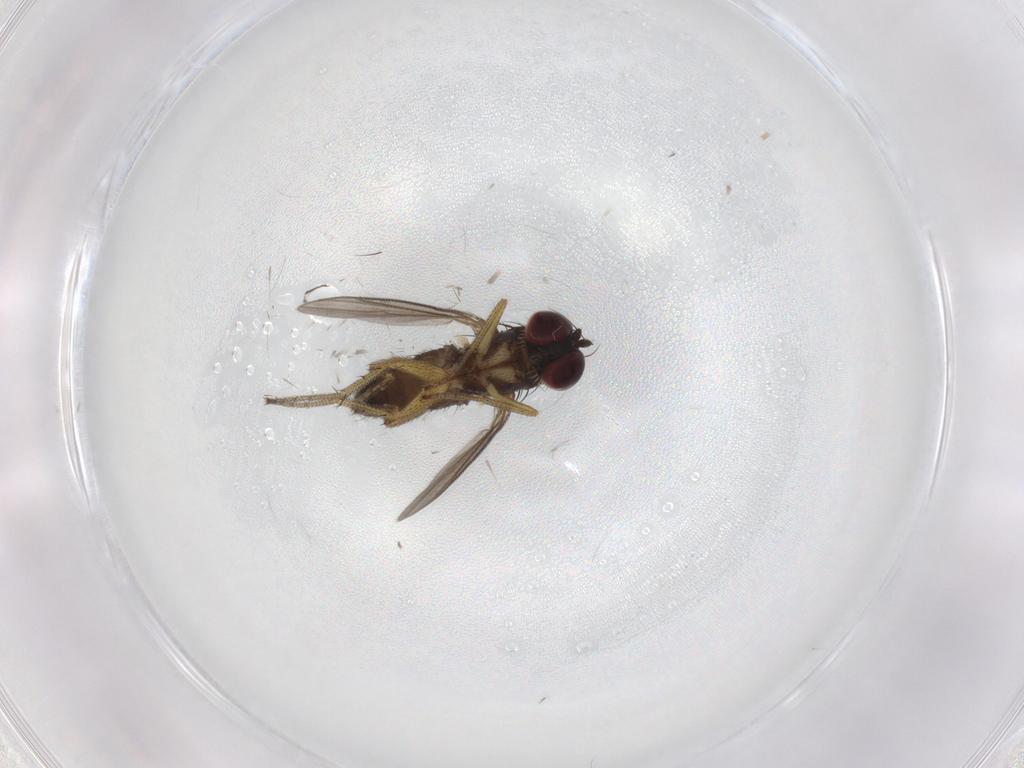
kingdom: Animalia
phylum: Arthropoda
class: Insecta
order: Diptera
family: Dolichopodidae
